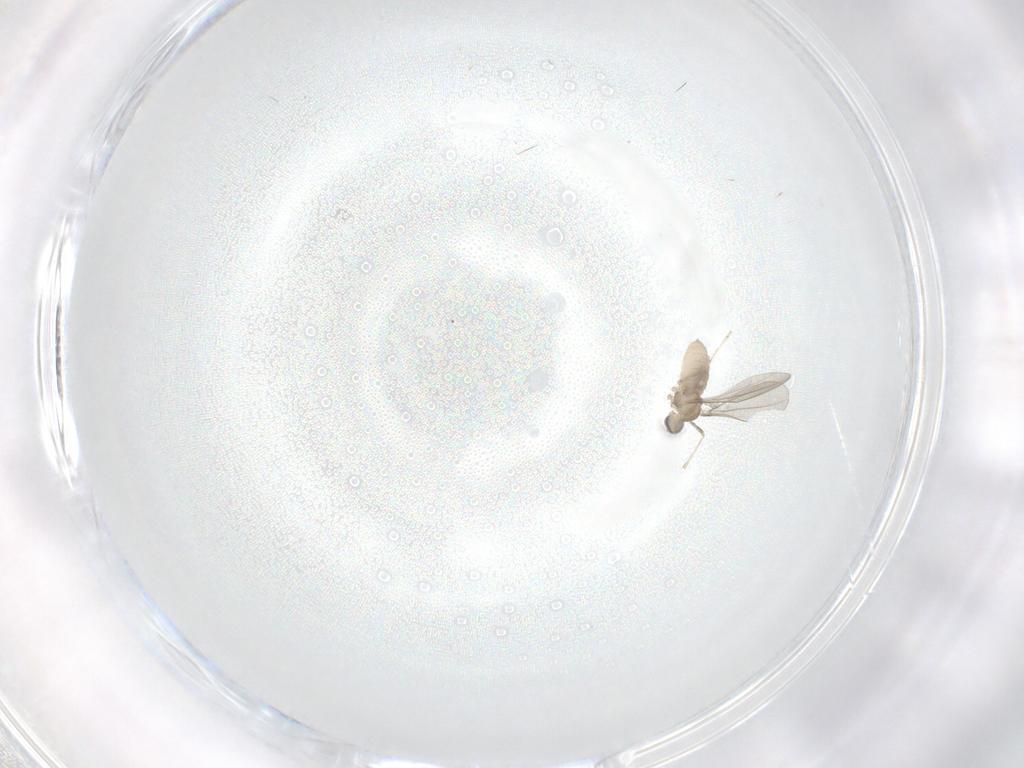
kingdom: Animalia
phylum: Arthropoda
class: Insecta
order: Diptera
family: Cecidomyiidae
